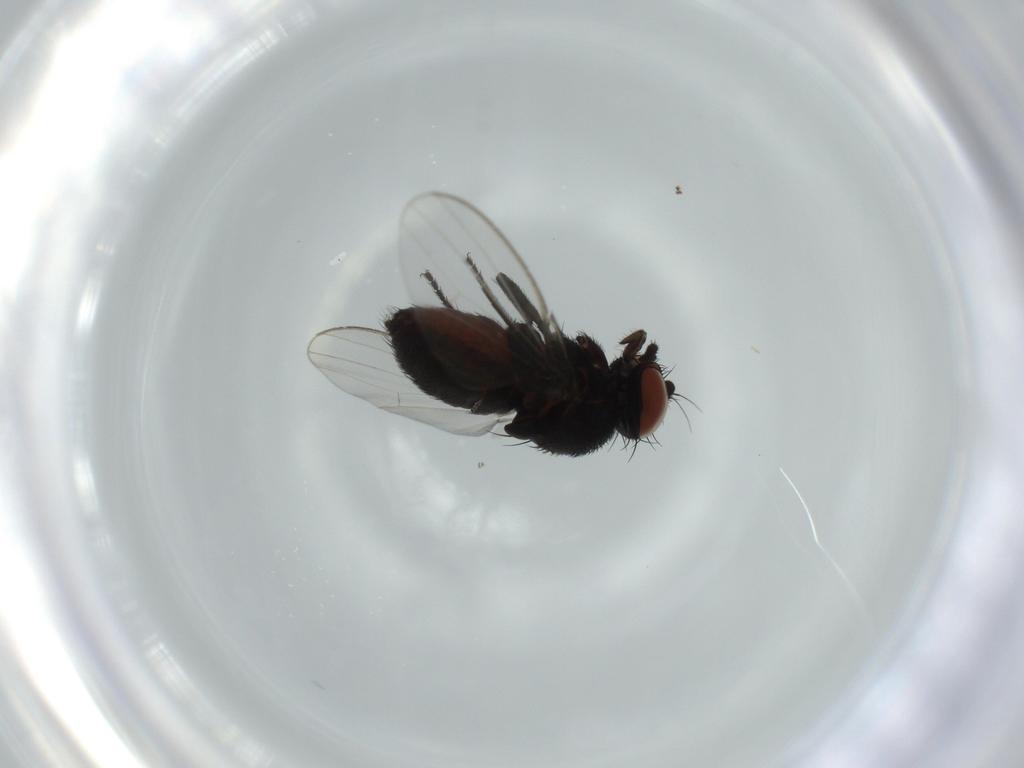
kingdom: Animalia
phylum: Arthropoda
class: Insecta
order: Diptera
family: Milichiidae
